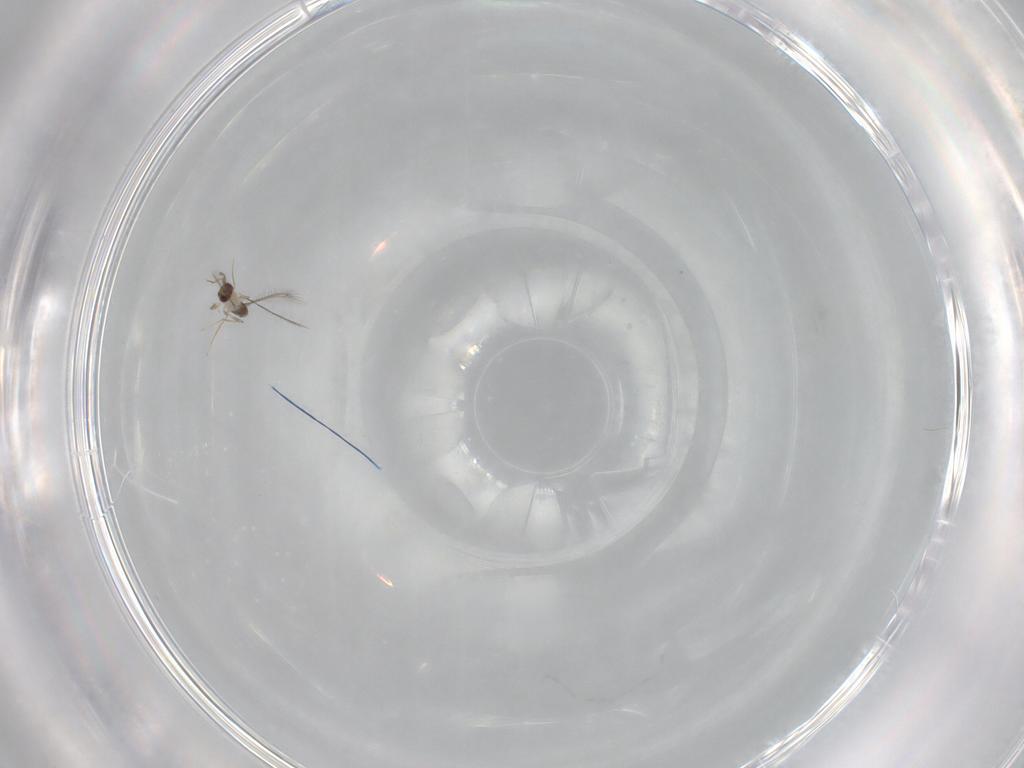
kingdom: Animalia
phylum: Arthropoda
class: Insecta
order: Hymenoptera
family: Mymaridae
